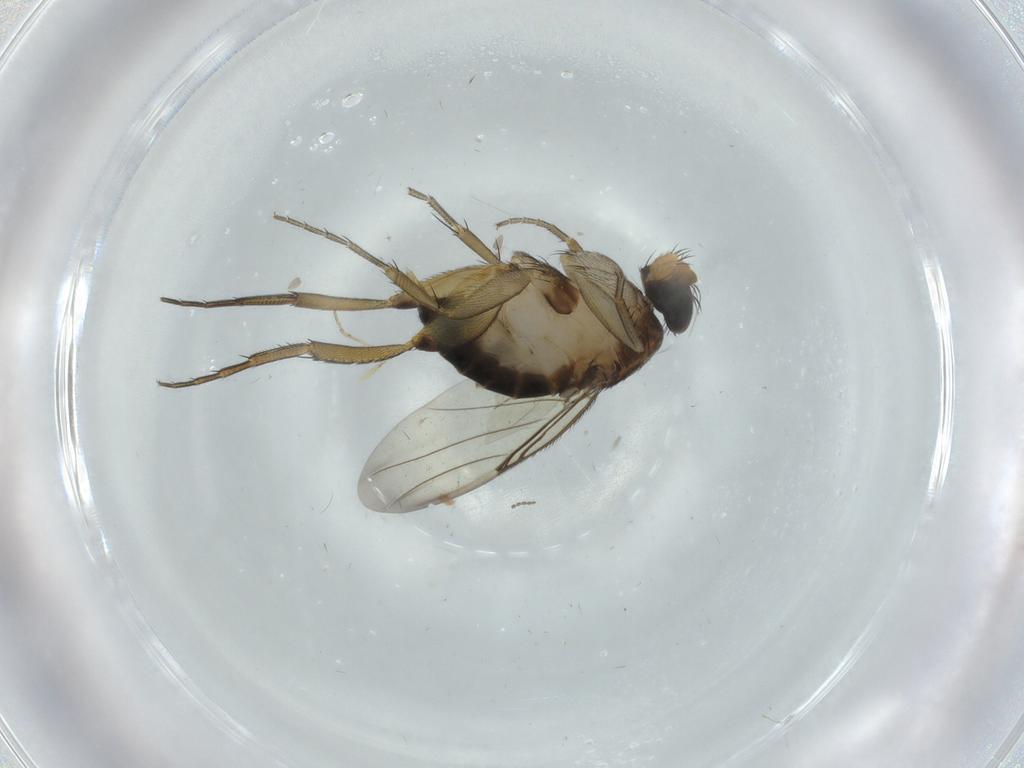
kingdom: Animalia
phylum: Arthropoda
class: Insecta
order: Diptera
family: Phoridae
